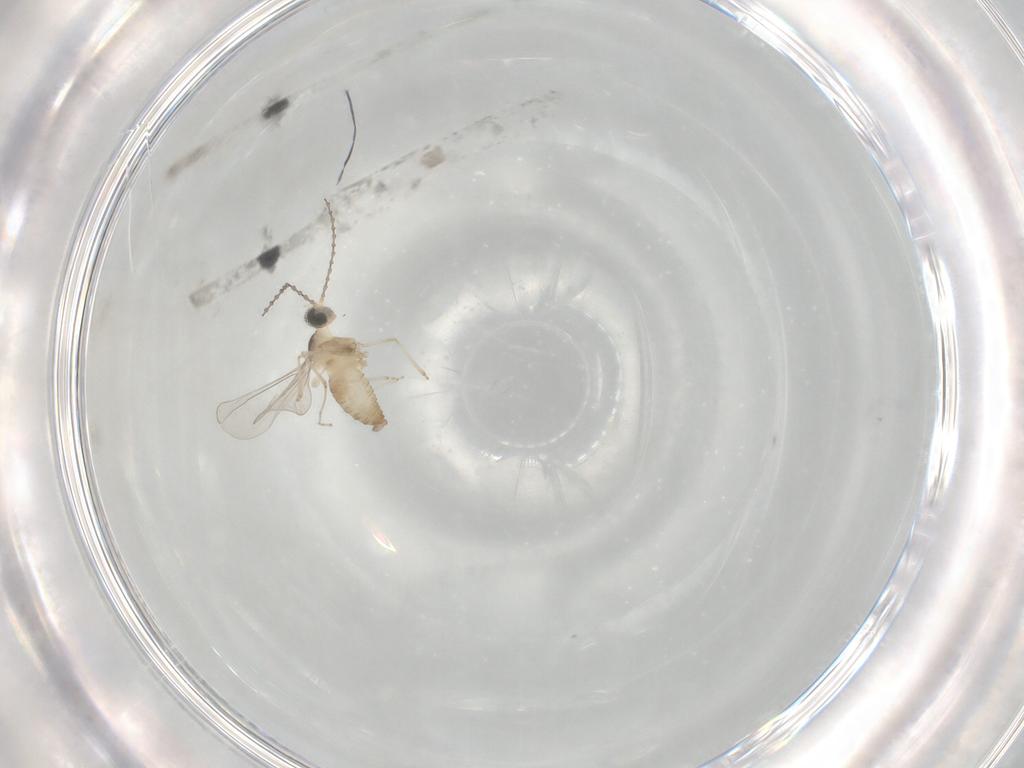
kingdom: Animalia
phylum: Arthropoda
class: Insecta
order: Diptera
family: Cecidomyiidae
